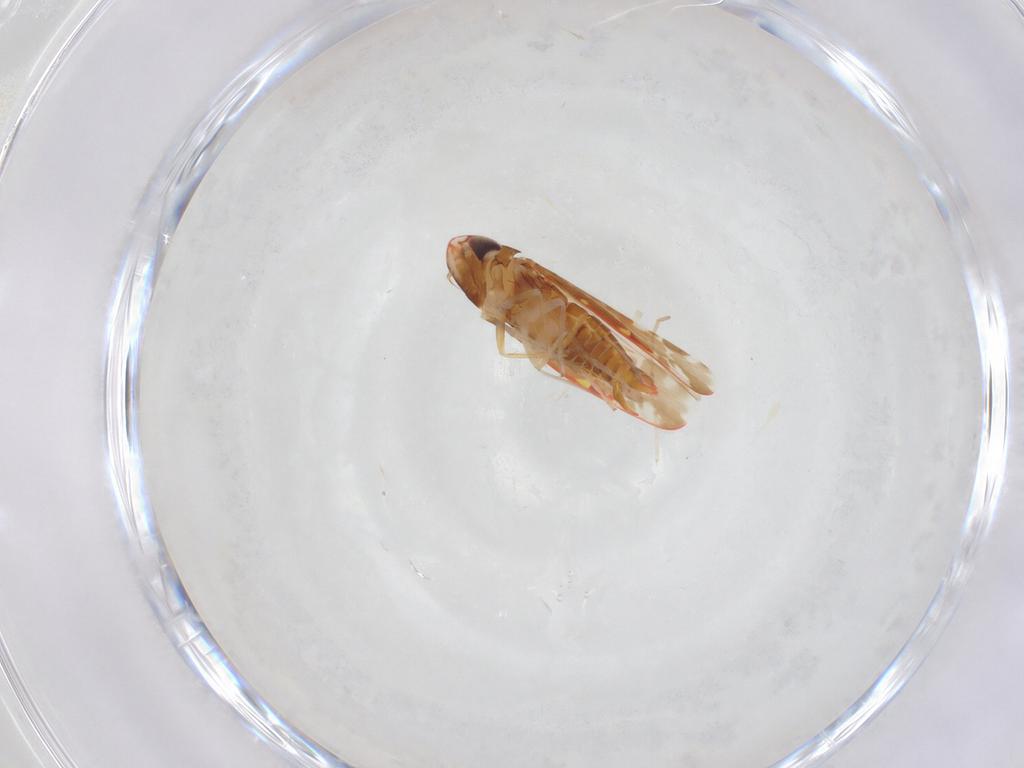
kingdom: Animalia
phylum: Arthropoda
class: Insecta
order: Hemiptera
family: Cicadellidae
